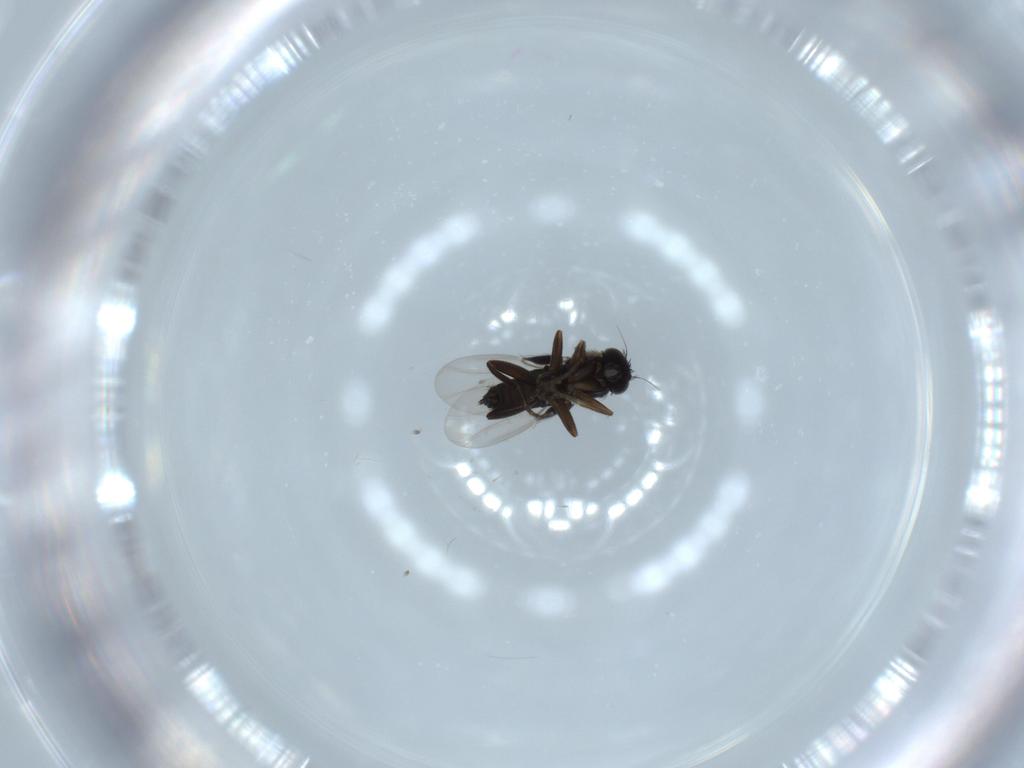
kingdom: Animalia
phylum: Arthropoda
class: Insecta
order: Diptera
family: Phoridae
